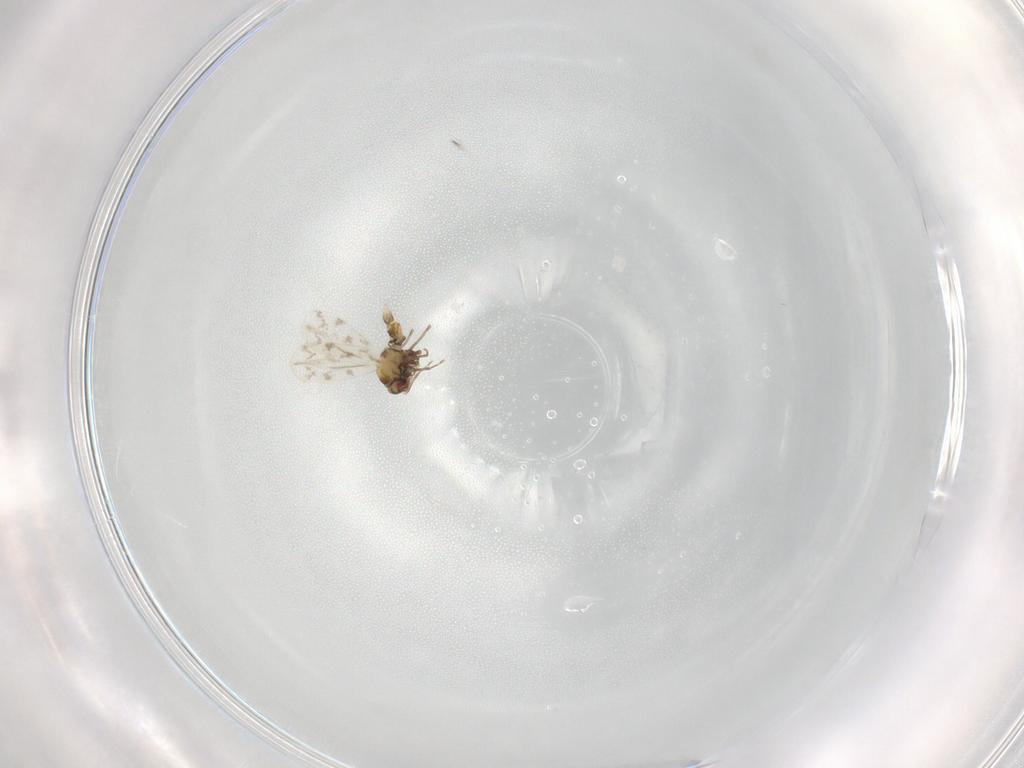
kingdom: Animalia
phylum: Arthropoda
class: Insecta
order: Hemiptera
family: Aleyrodidae
